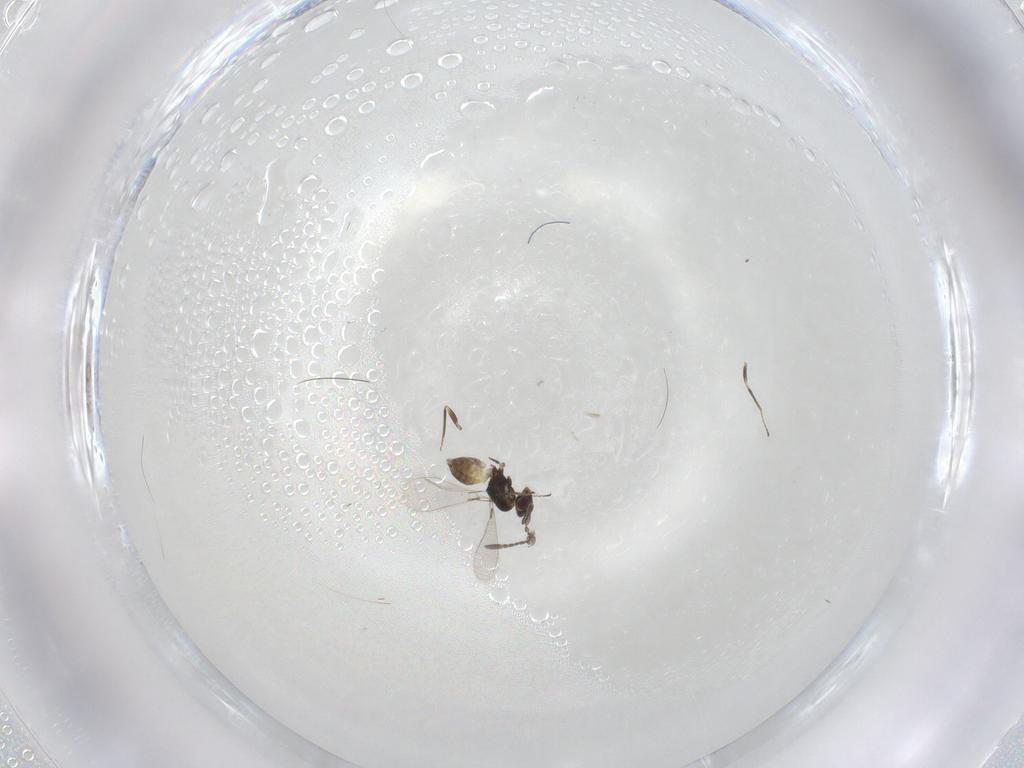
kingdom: Animalia
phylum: Arthropoda
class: Insecta
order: Hymenoptera
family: Mymaridae
